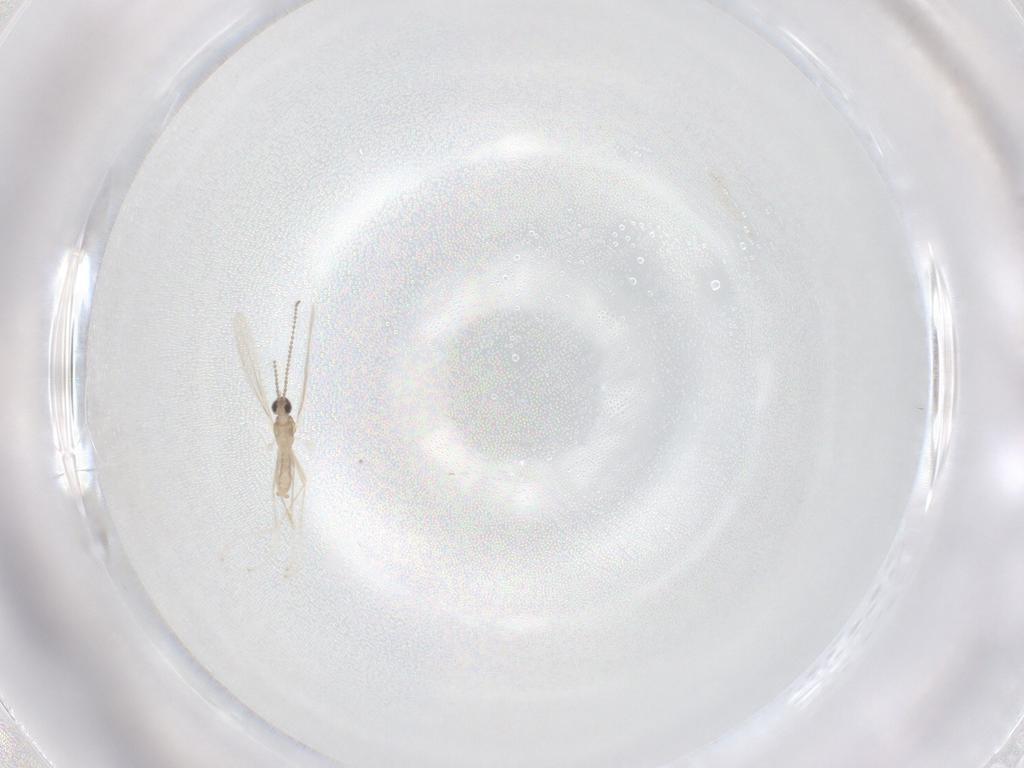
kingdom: Animalia
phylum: Arthropoda
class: Insecta
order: Diptera
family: Cecidomyiidae
